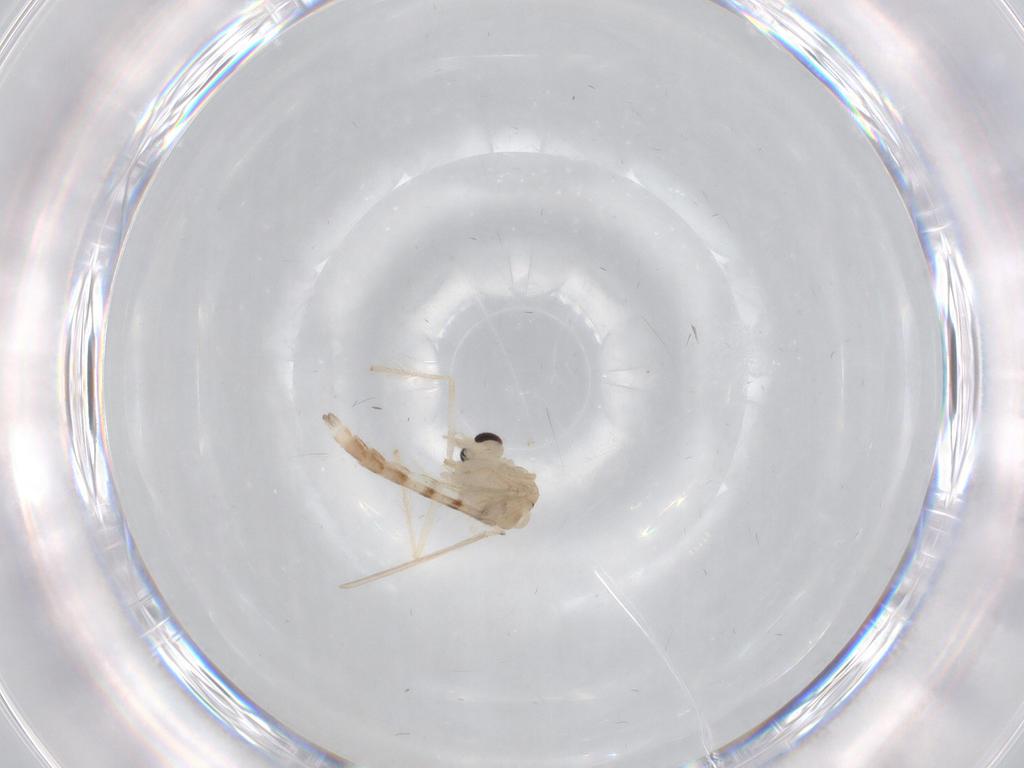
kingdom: Animalia
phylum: Arthropoda
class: Insecta
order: Diptera
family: Chironomidae
